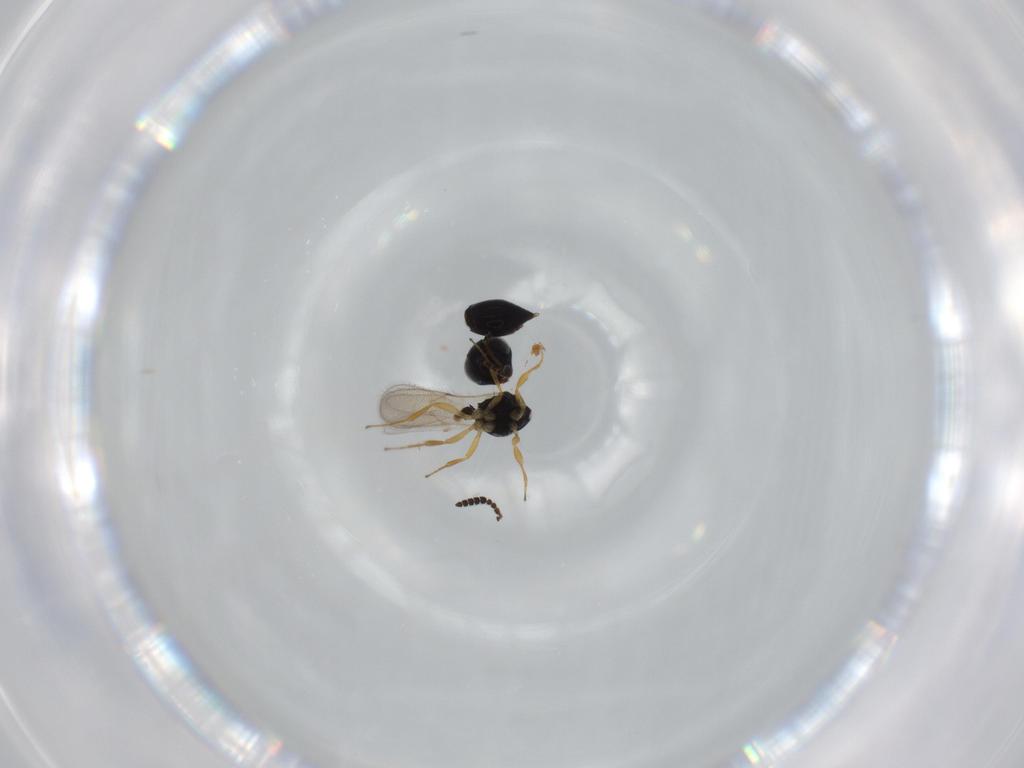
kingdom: Animalia
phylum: Arthropoda
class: Insecta
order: Hymenoptera
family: Scelionidae
